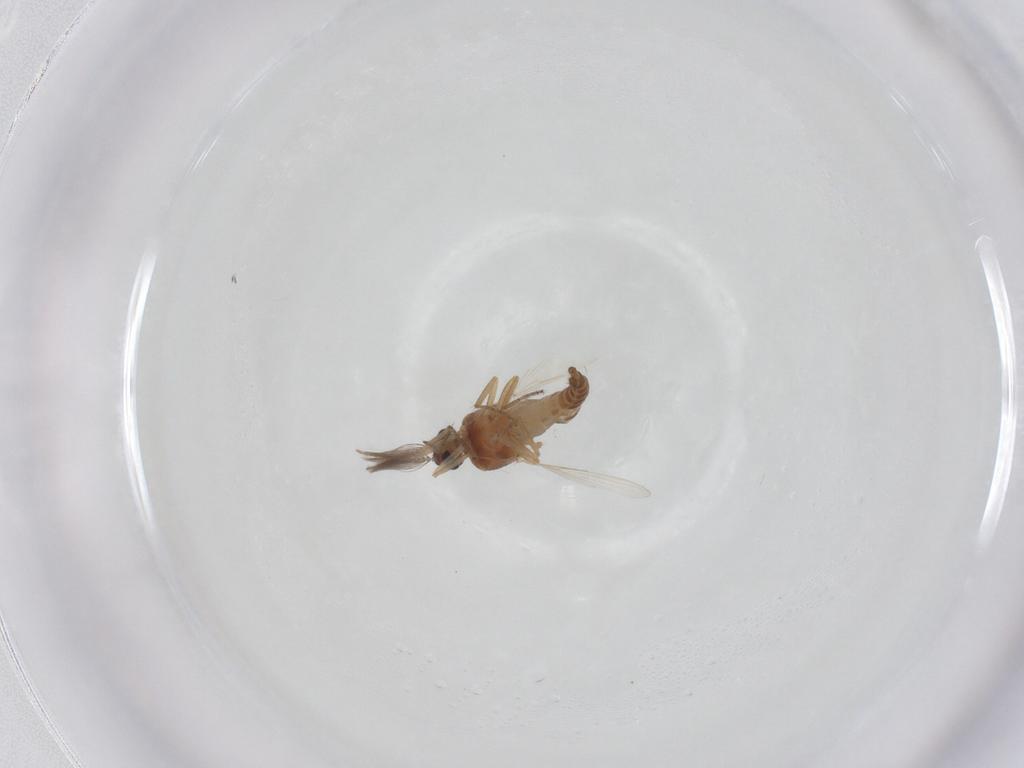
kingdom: Animalia
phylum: Arthropoda
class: Insecta
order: Diptera
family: Ceratopogonidae
